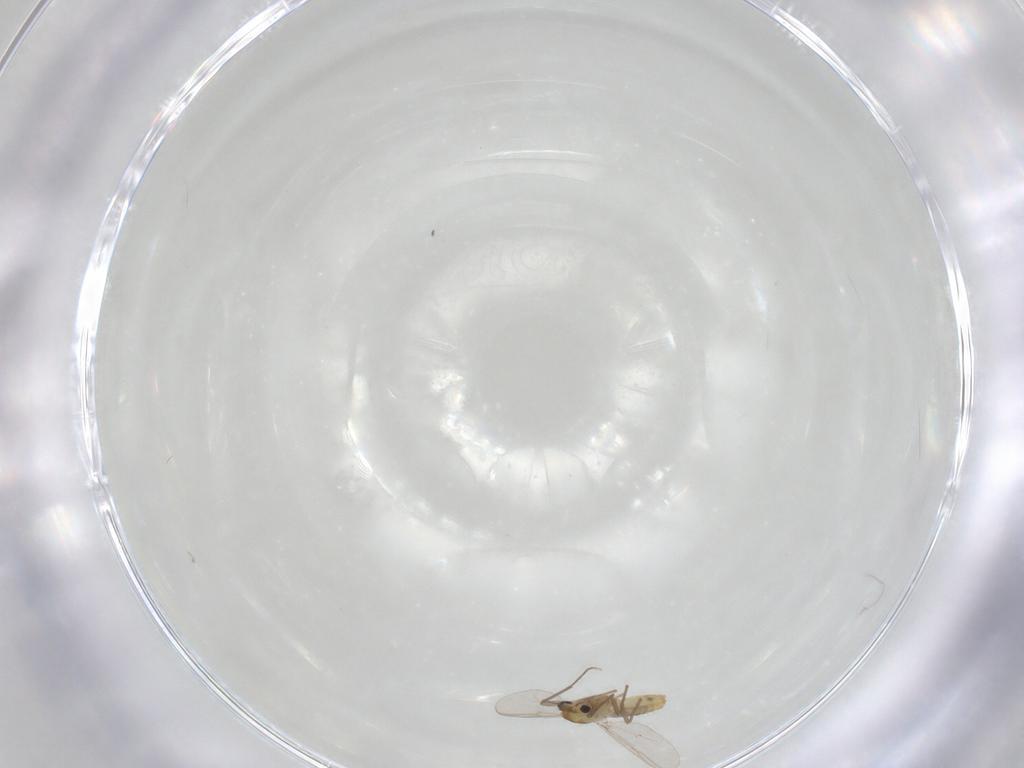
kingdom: Animalia
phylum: Arthropoda
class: Insecta
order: Diptera
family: Chironomidae
